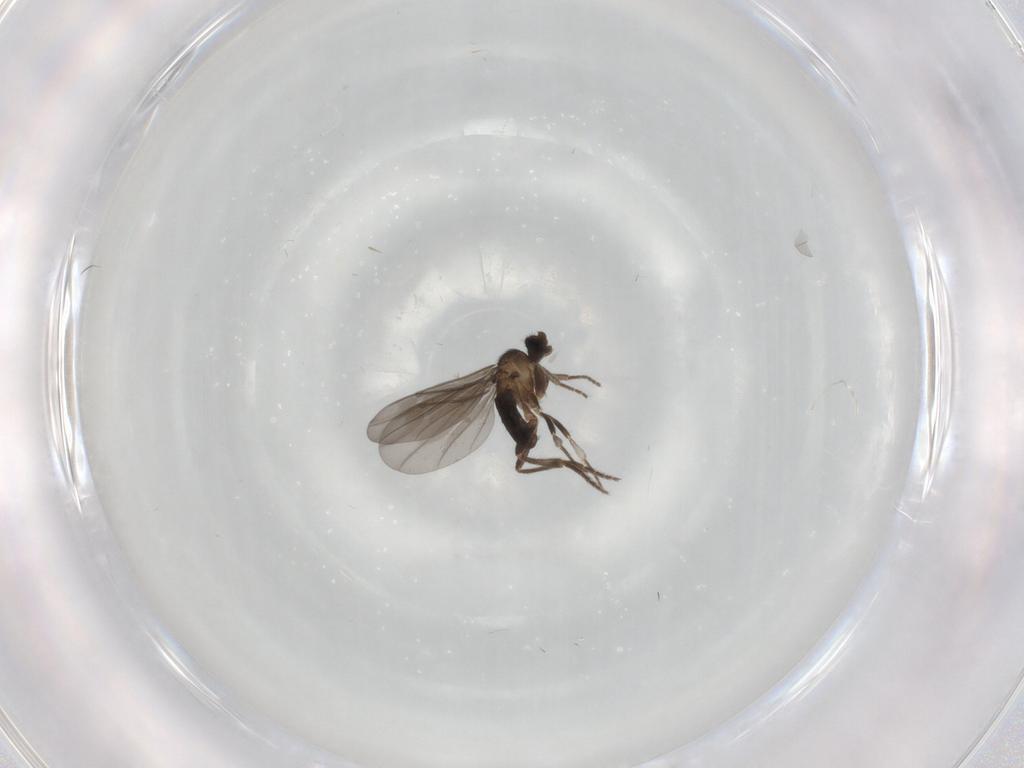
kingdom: Animalia
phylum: Arthropoda
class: Insecta
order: Diptera
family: Phoridae
